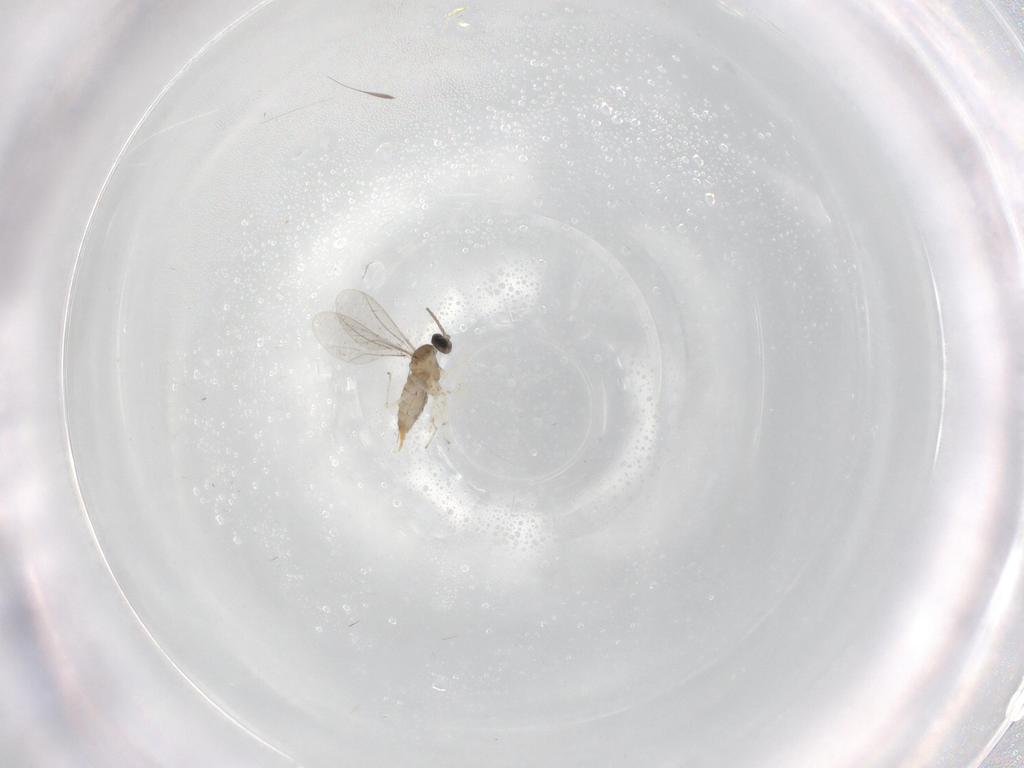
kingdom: Animalia
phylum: Arthropoda
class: Insecta
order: Diptera
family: Cecidomyiidae
